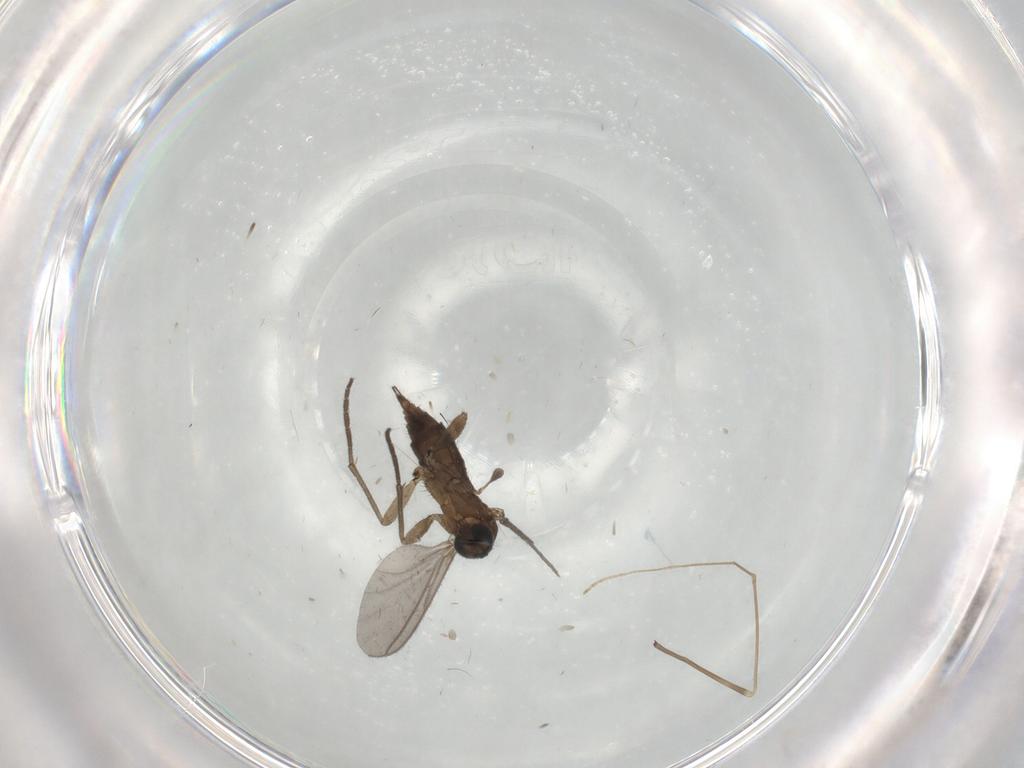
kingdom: Animalia
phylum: Arthropoda
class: Insecta
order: Diptera
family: Limoniidae
